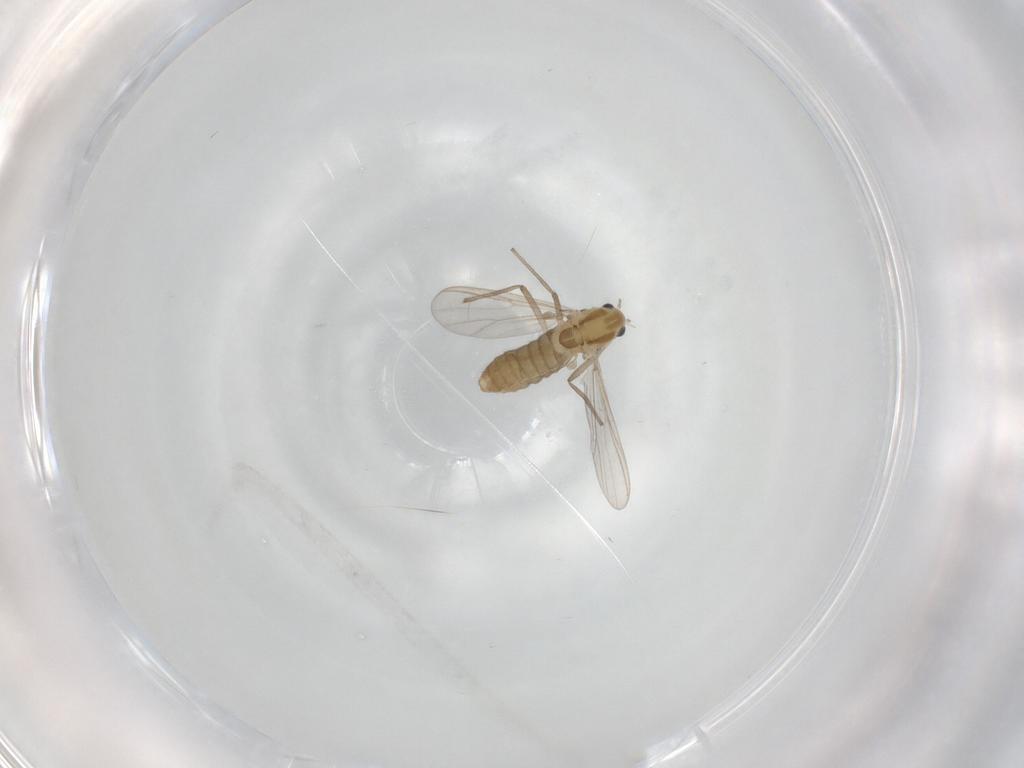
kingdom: Animalia
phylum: Arthropoda
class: Insecta
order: Diptera
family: Chironomidae
